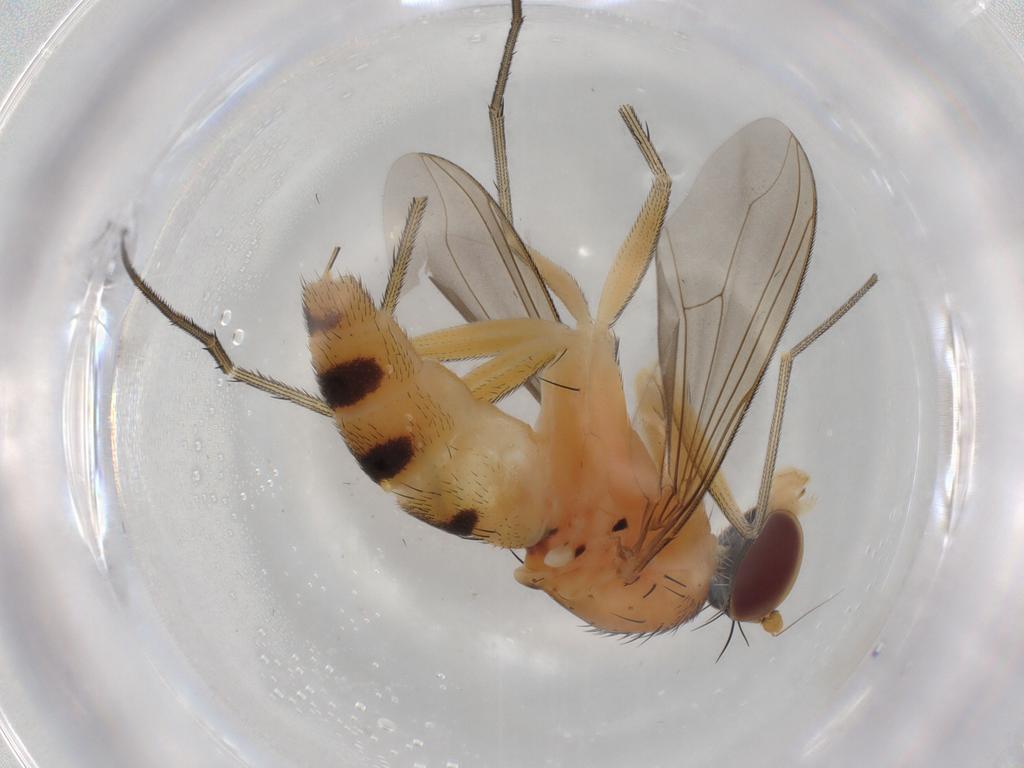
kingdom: Animalia
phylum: Arthropoda
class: Insecta
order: Diptera
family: Dolichopodidae
